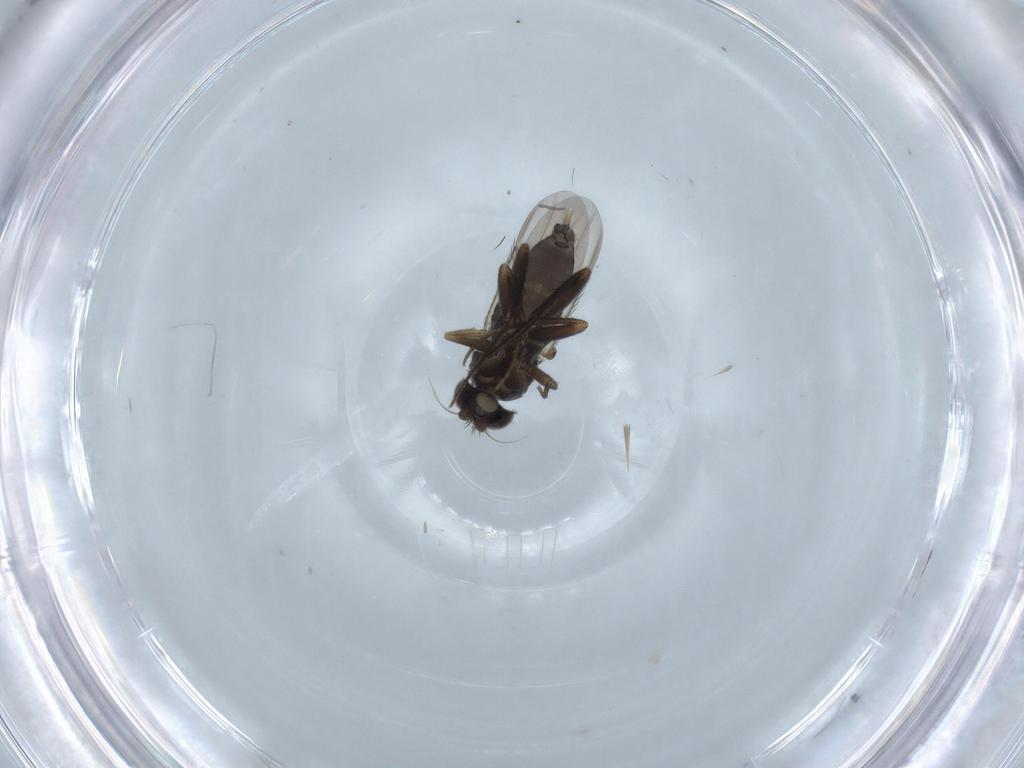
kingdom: Animalia
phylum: Arthropoda
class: Insecta
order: Diptera
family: Phoridae
